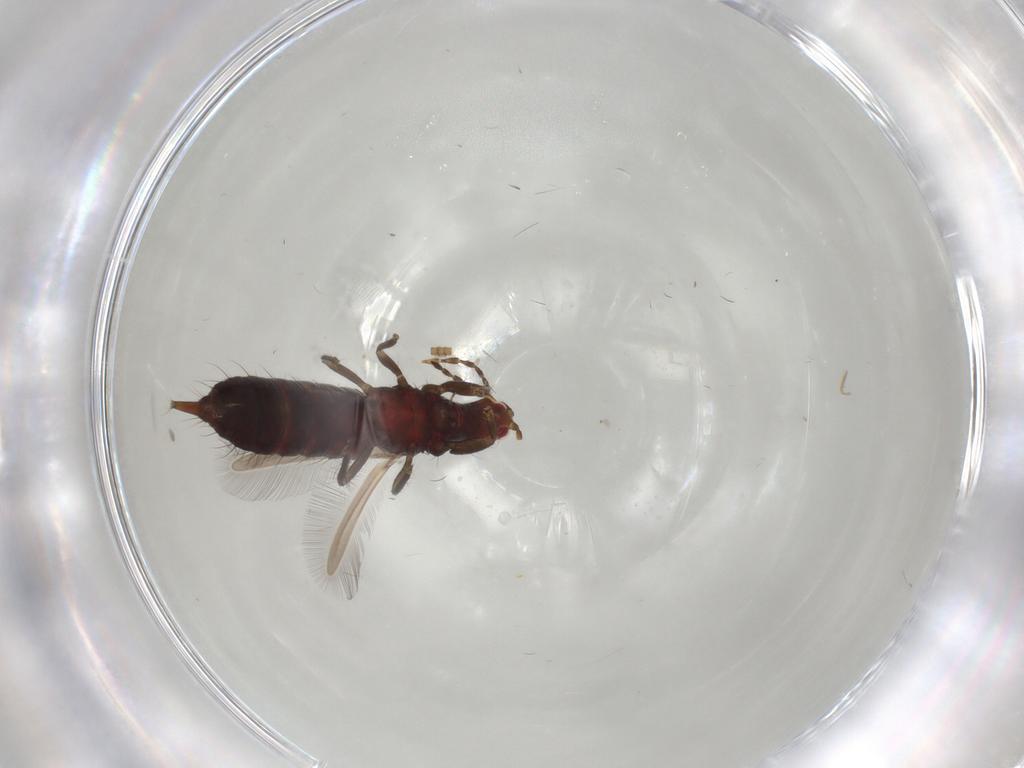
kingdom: Animalia
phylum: Arthropoda
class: Insecta
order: Thysanoptera
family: Phlaeothripidae
